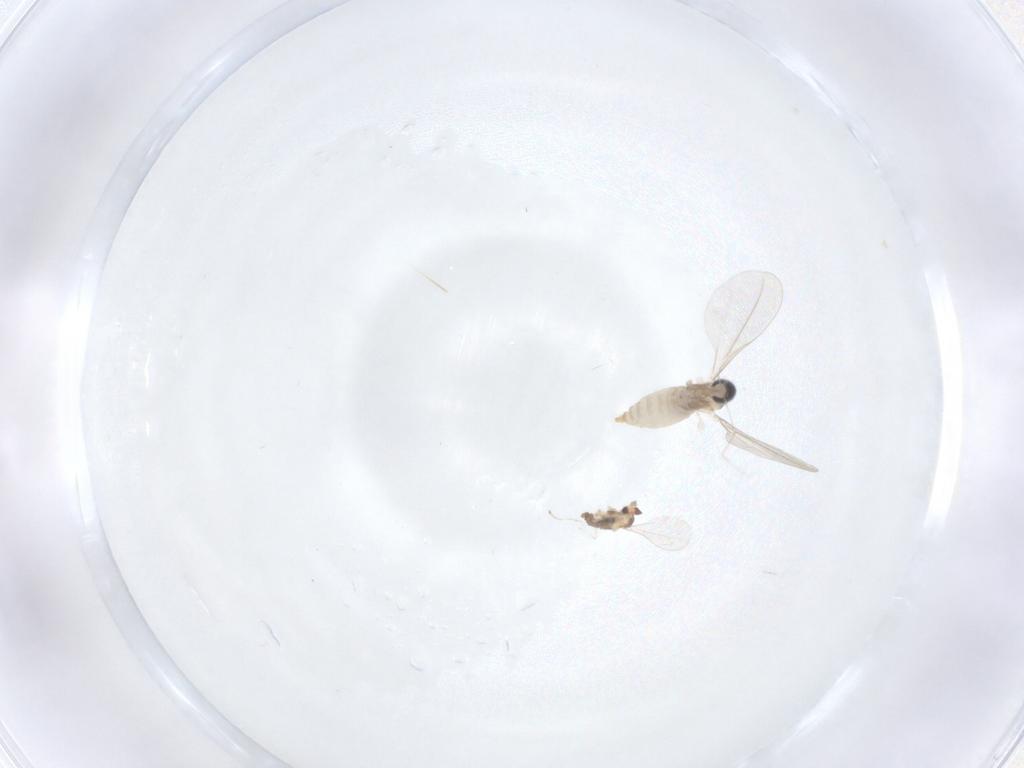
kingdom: Animalia
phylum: Arthropoda
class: Insecta
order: Diptera
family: Cecidomyiidae
